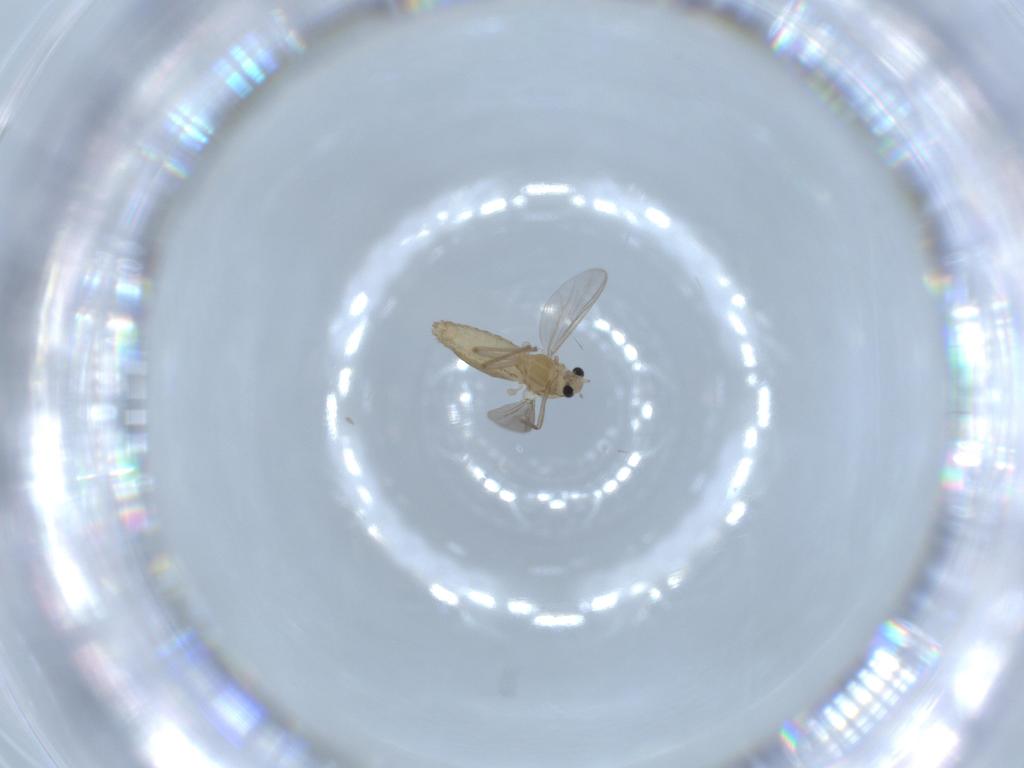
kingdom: Animalia
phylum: Arthropoda
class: Insecta
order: Diptera
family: Chironomidae
